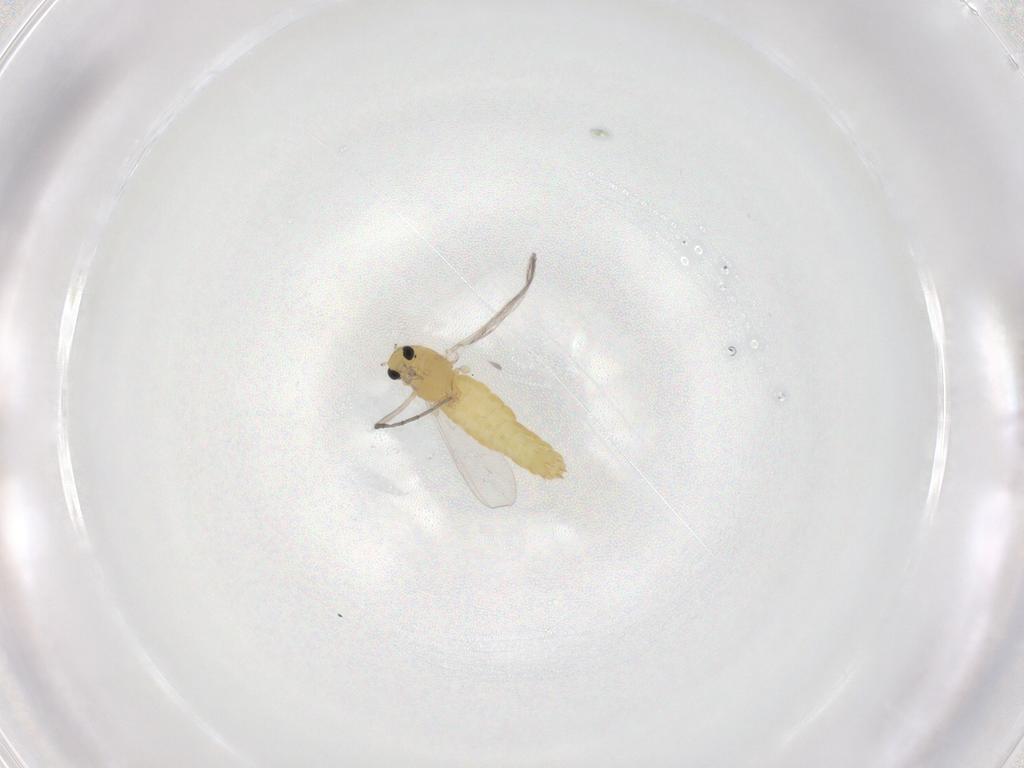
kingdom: Animalia
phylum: Arthropoda
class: Insecta
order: Diptera
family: Chironomidae
